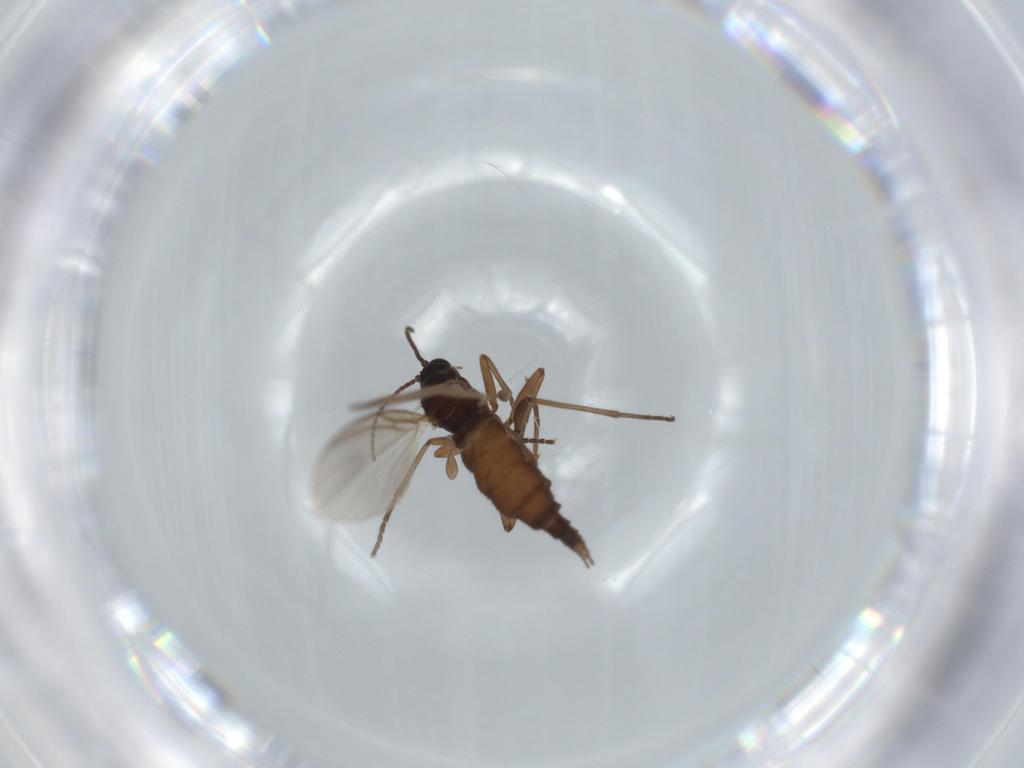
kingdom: Animalia
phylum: Arthropoda
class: Insecta
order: Diptera
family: Sciaridae
